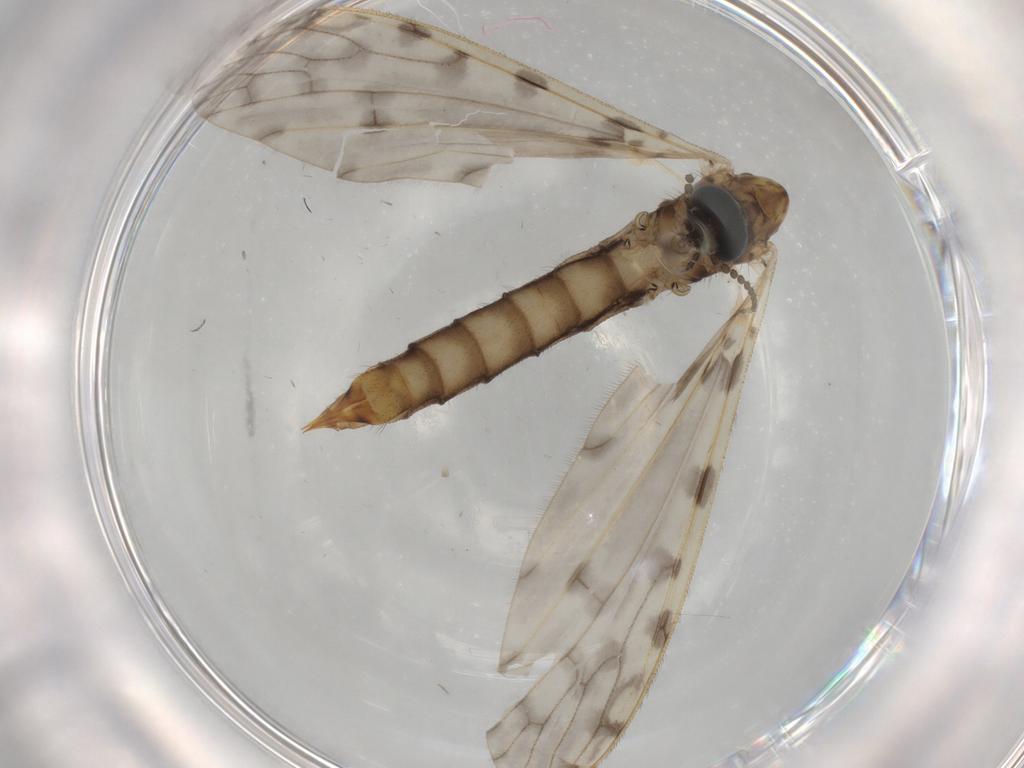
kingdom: Animalia
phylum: Arthropoda
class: Insecta
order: Diptera
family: Limoniidae
